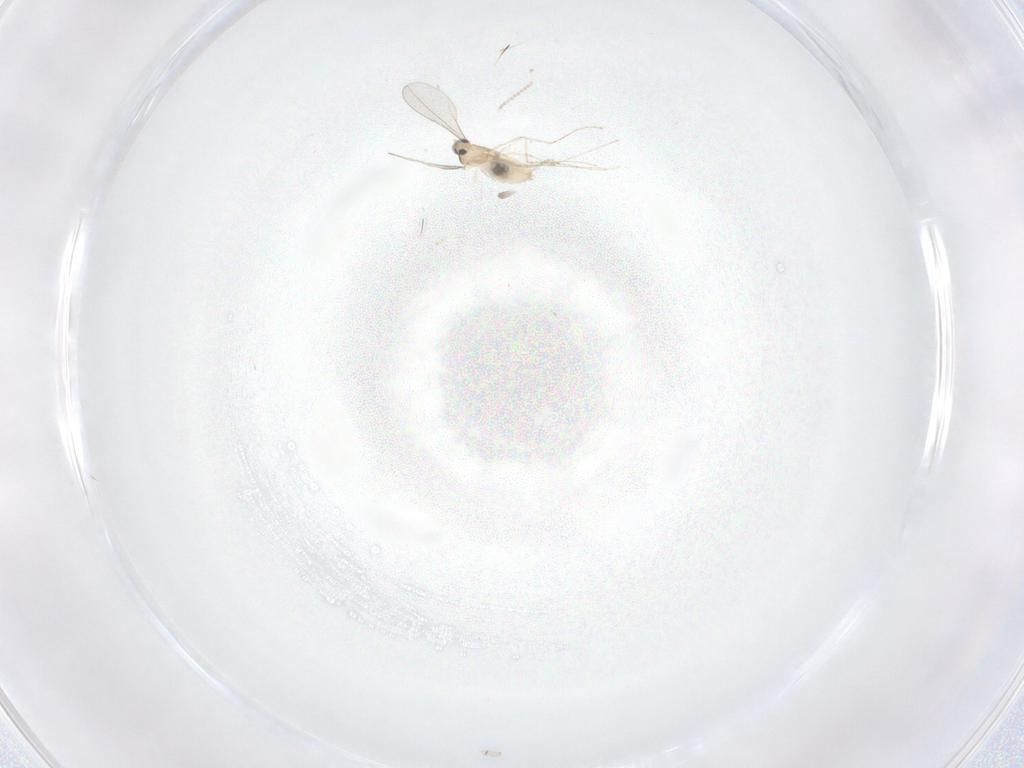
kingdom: Animalia
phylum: Arthropoda
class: Insecta
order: Diptera
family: Cecidomyiidae
